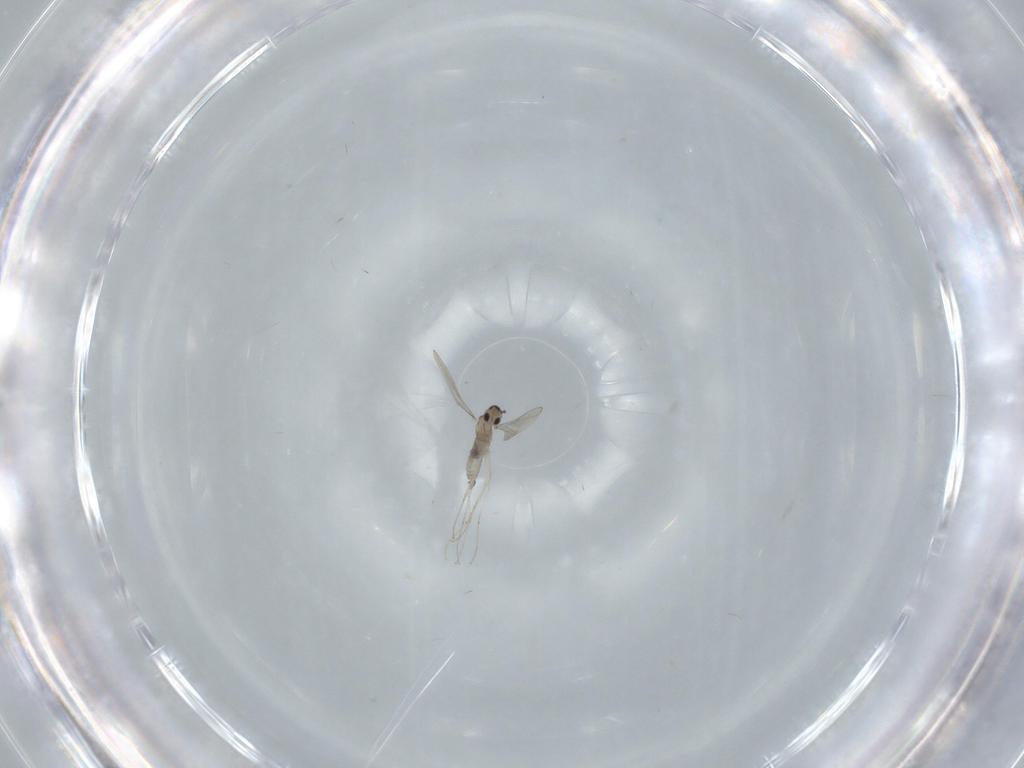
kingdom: Animalia
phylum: Arthropoda
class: Insecta
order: Diptera
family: Cecidomyiidae
